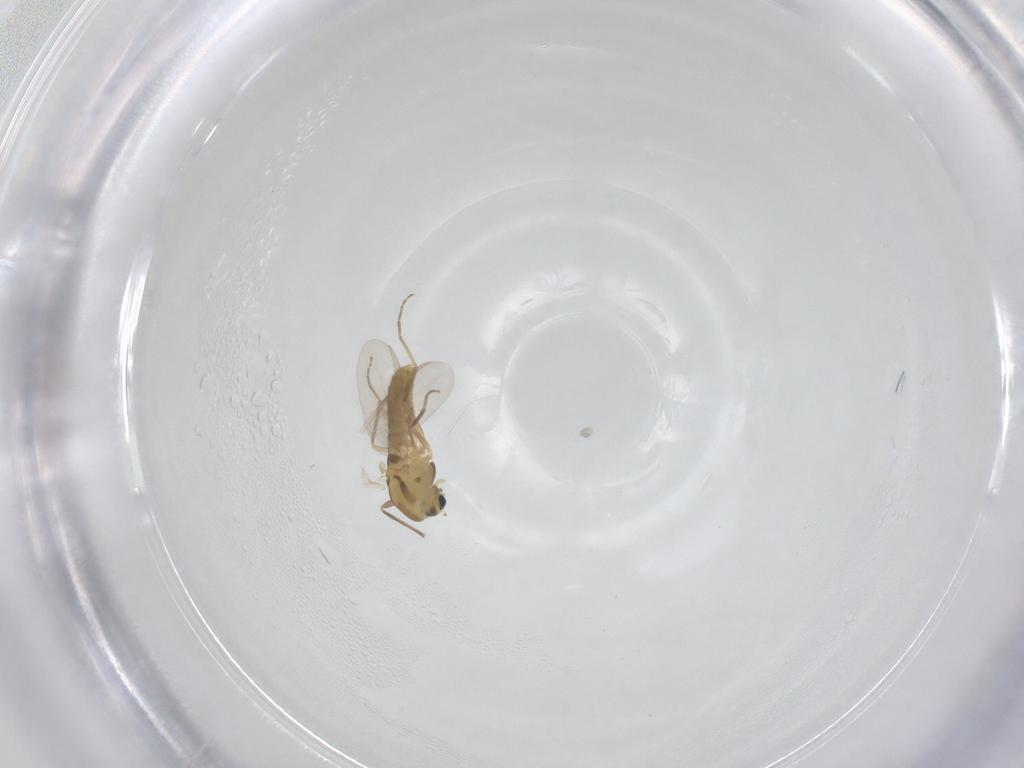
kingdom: Animalia
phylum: Arthropoda
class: Insecta
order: Diptera
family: Chironomidae
